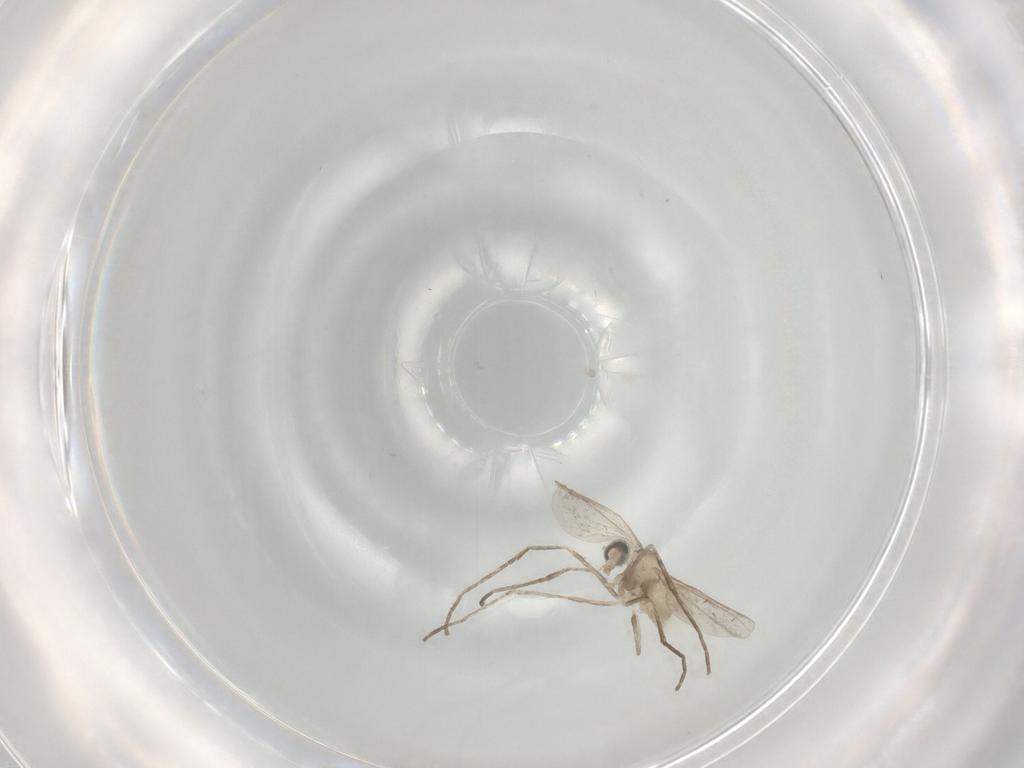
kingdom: Animalia
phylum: Arthropoda
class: Insecta
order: Diptera
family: Psychodidae
